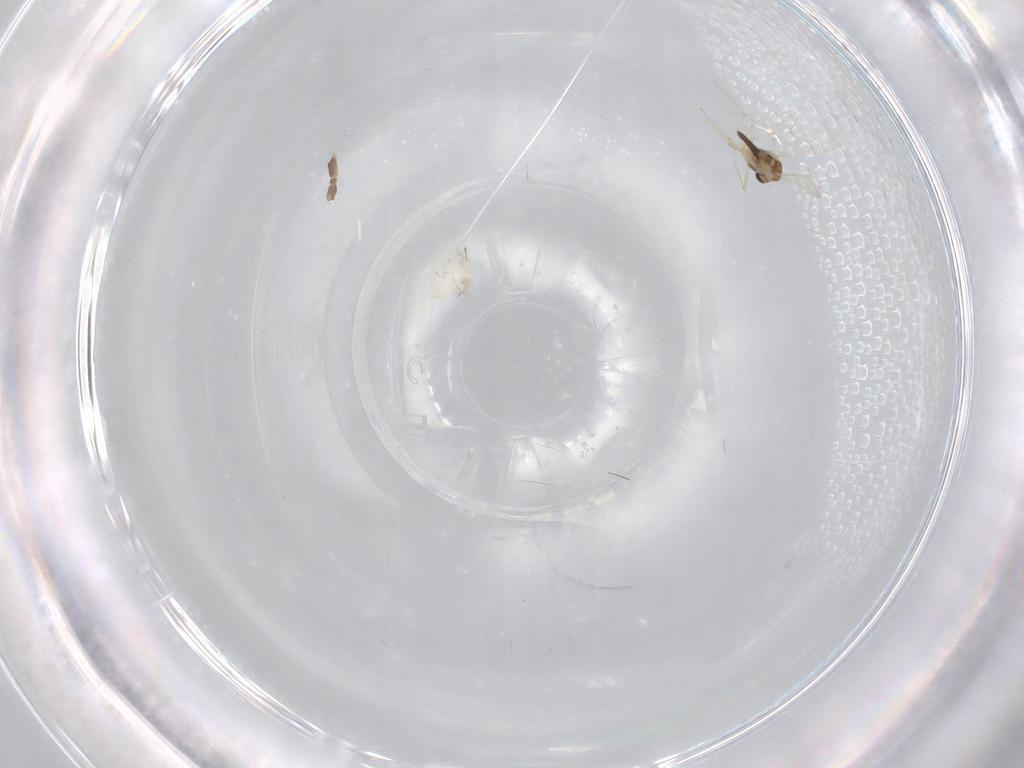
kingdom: Animalia
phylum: Arthropoda
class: Insecta
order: Diptera
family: Chironomidae
